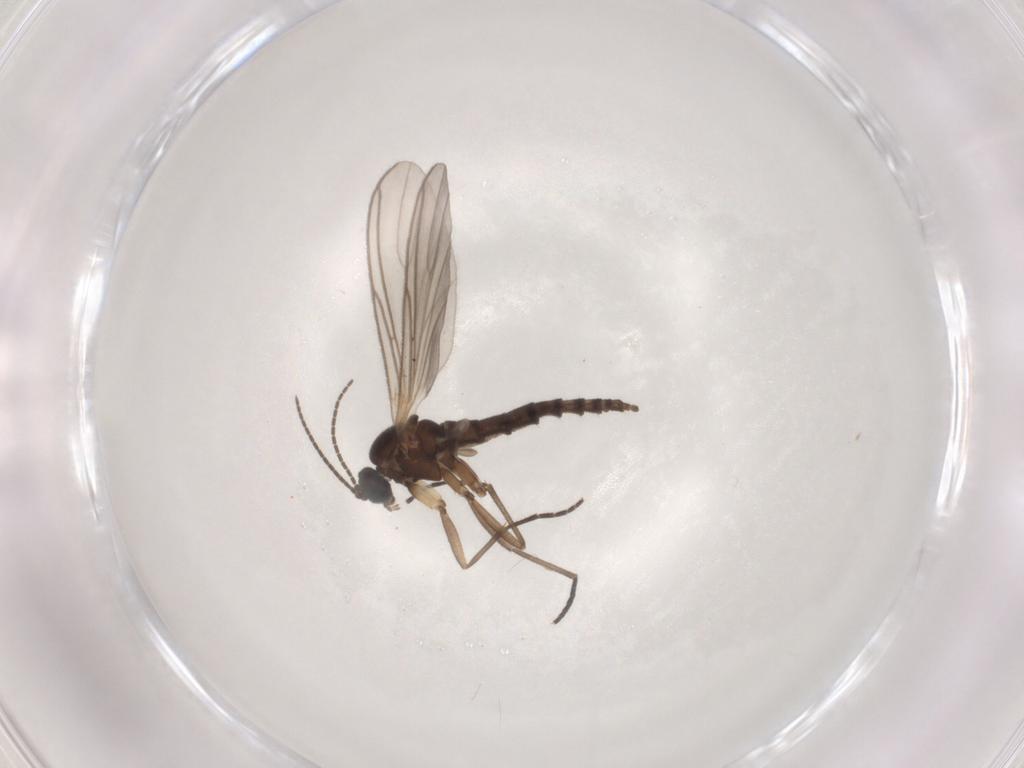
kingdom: Animalia
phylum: Arthropoda
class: Insecta
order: Diptera
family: Sciaridae
